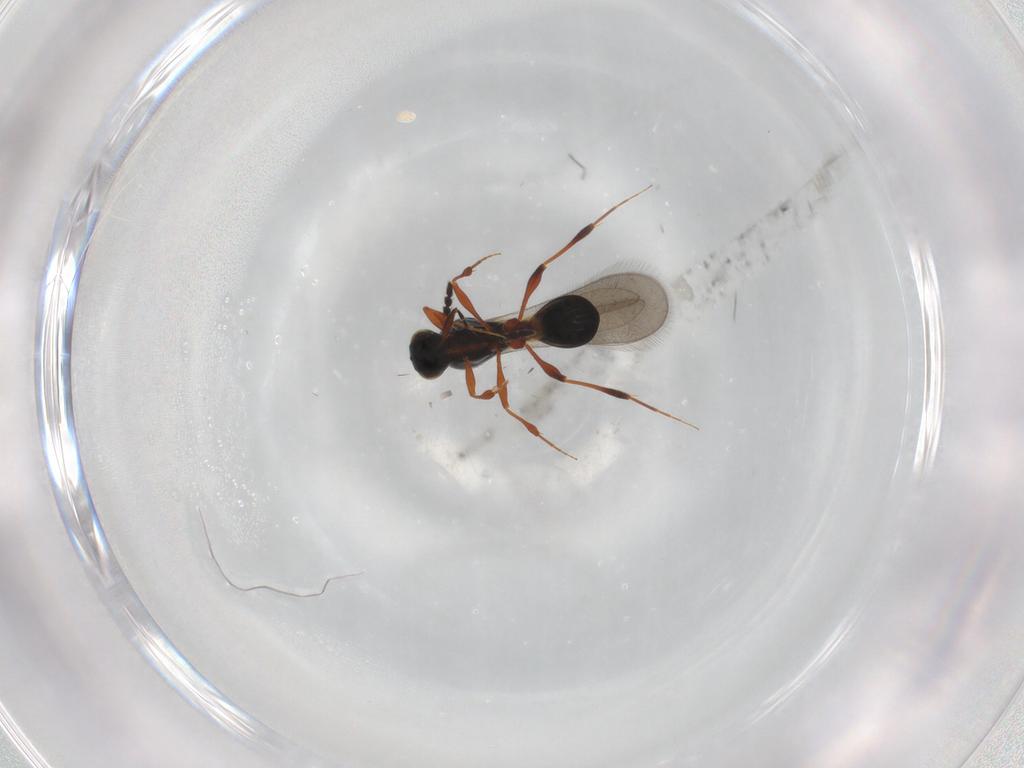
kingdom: Animalia
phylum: Arthropoda
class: Insecta
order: Hymenoptera
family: Platygastridae
